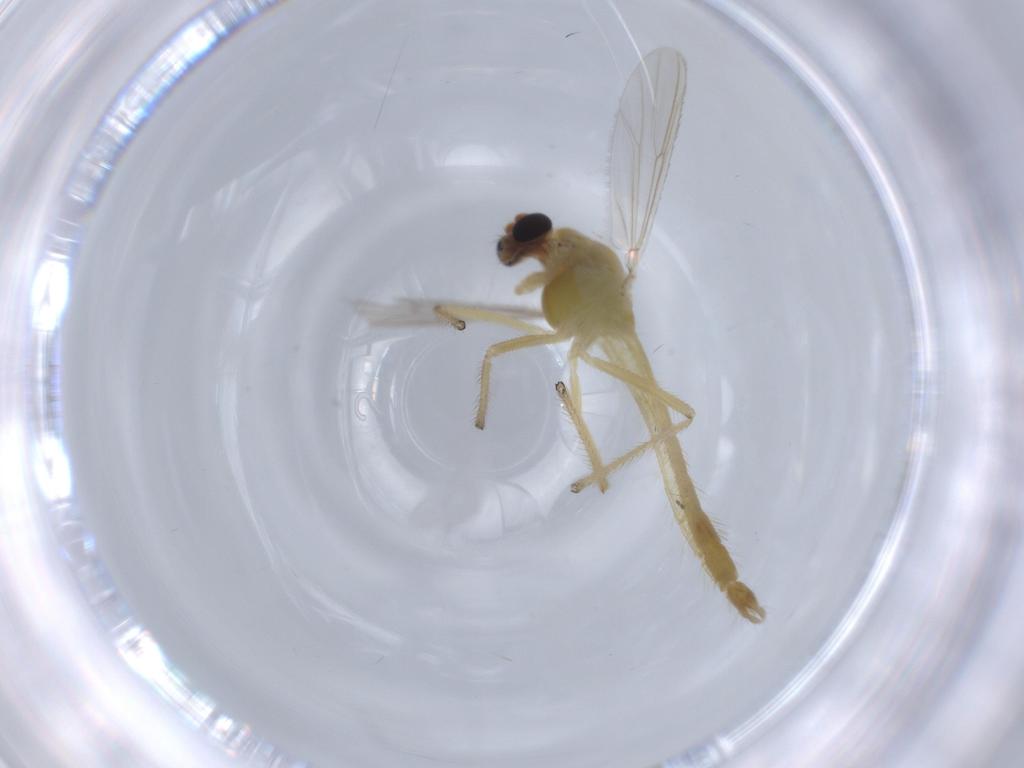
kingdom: Animalia
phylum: Arthropoda
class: Insecta
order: Diptera
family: Chironomidae
